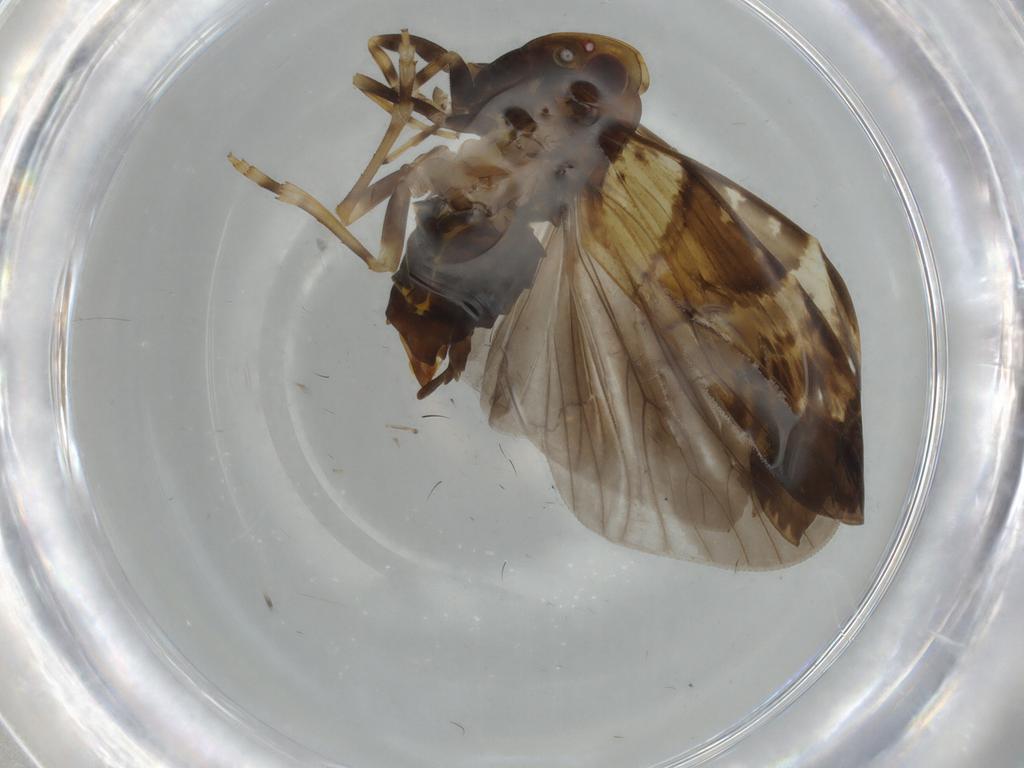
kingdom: Animalia
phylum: Arthropoda
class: Insecta
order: Hemiptera
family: Cixiidae
